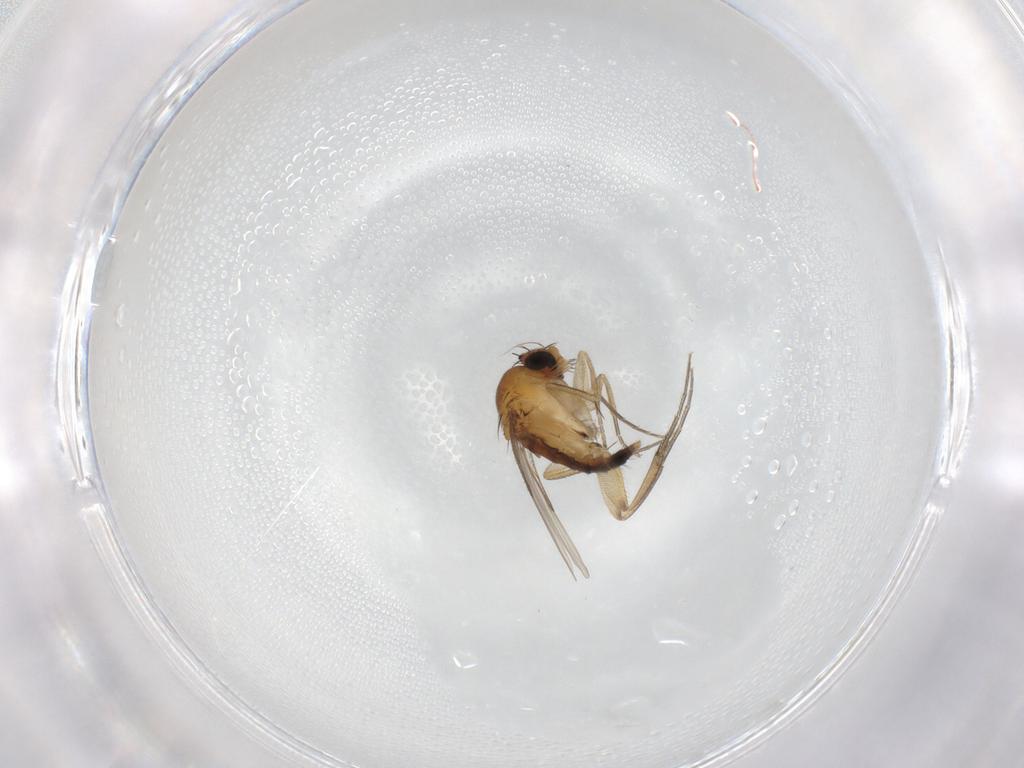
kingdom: Animalia
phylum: Arthropoda
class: Insecta
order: Diptera
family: Phoridae
